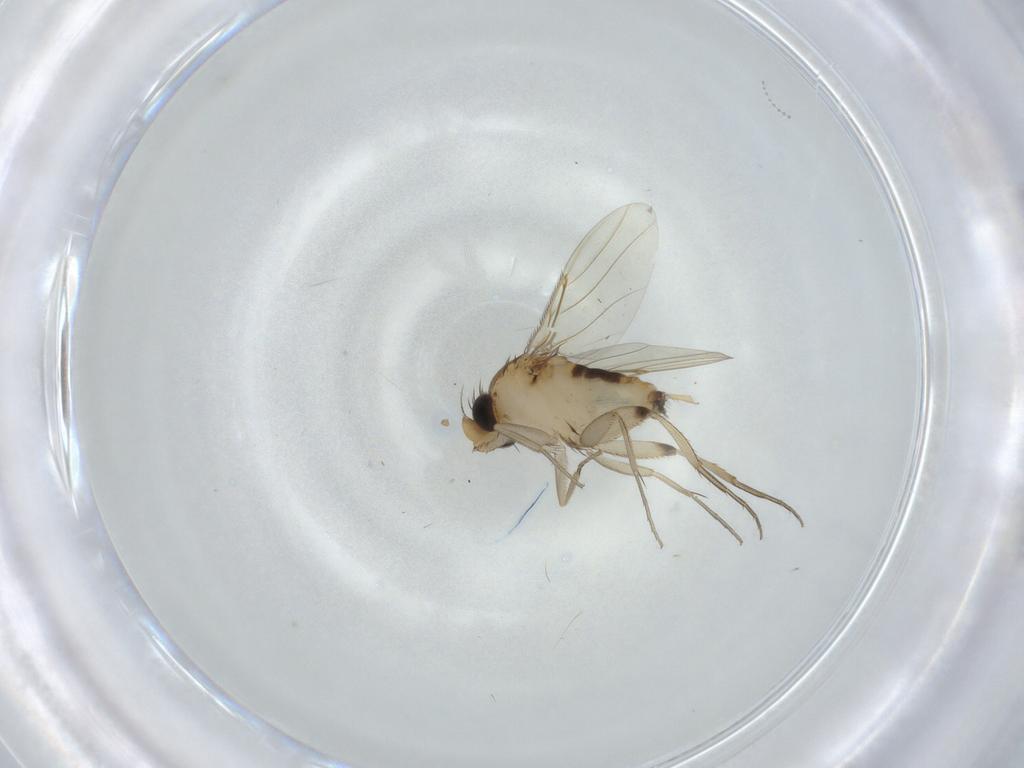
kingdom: Animalia
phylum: Arthropoda
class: Insecta
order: Diptera
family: Phoridae
